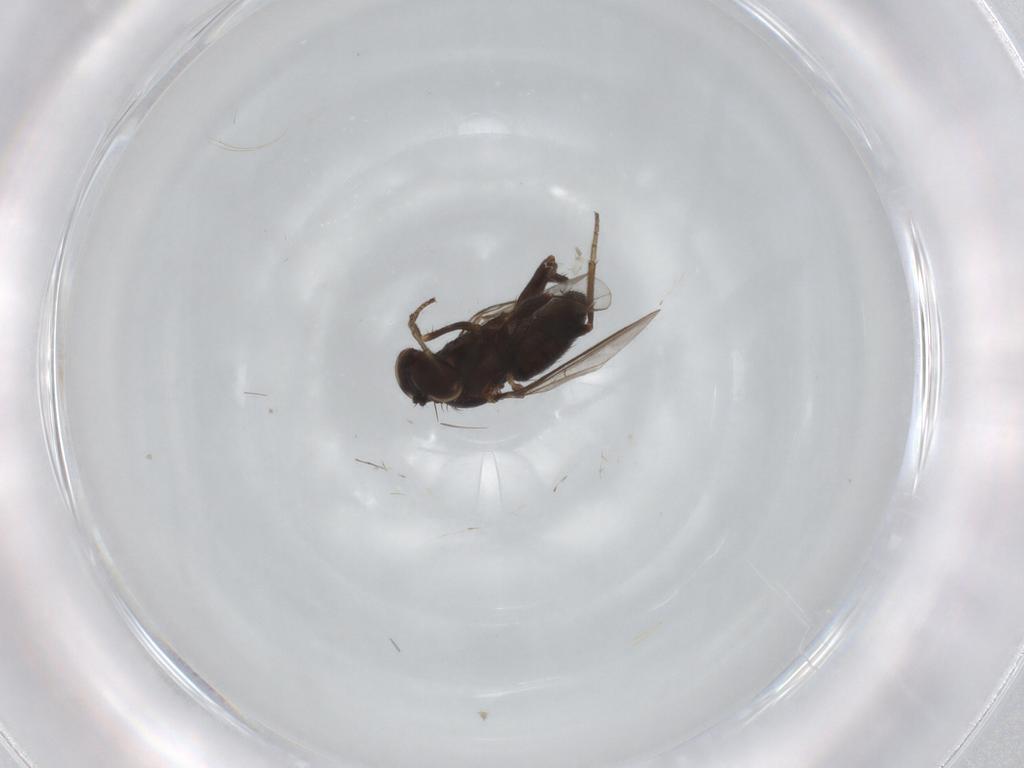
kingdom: Animalia
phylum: Arthropoda
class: Insecta
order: Diptera
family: Dolichopodidae
